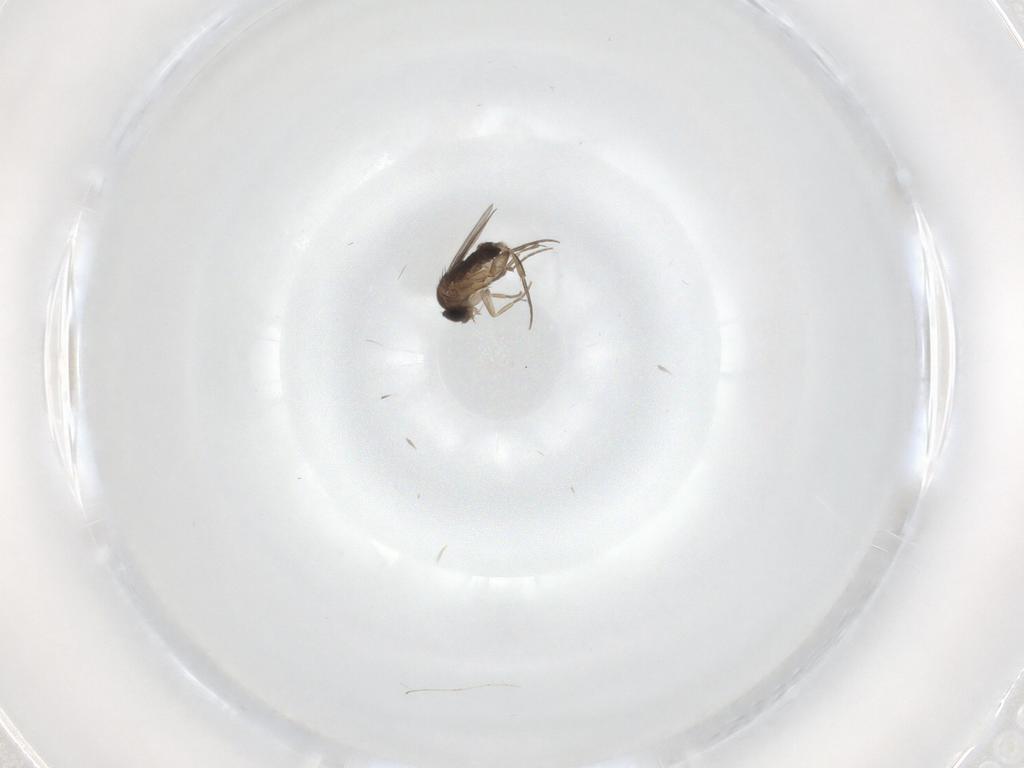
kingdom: Animalia
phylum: Arthropoda
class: Insecta
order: Diptera
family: Phoridae
